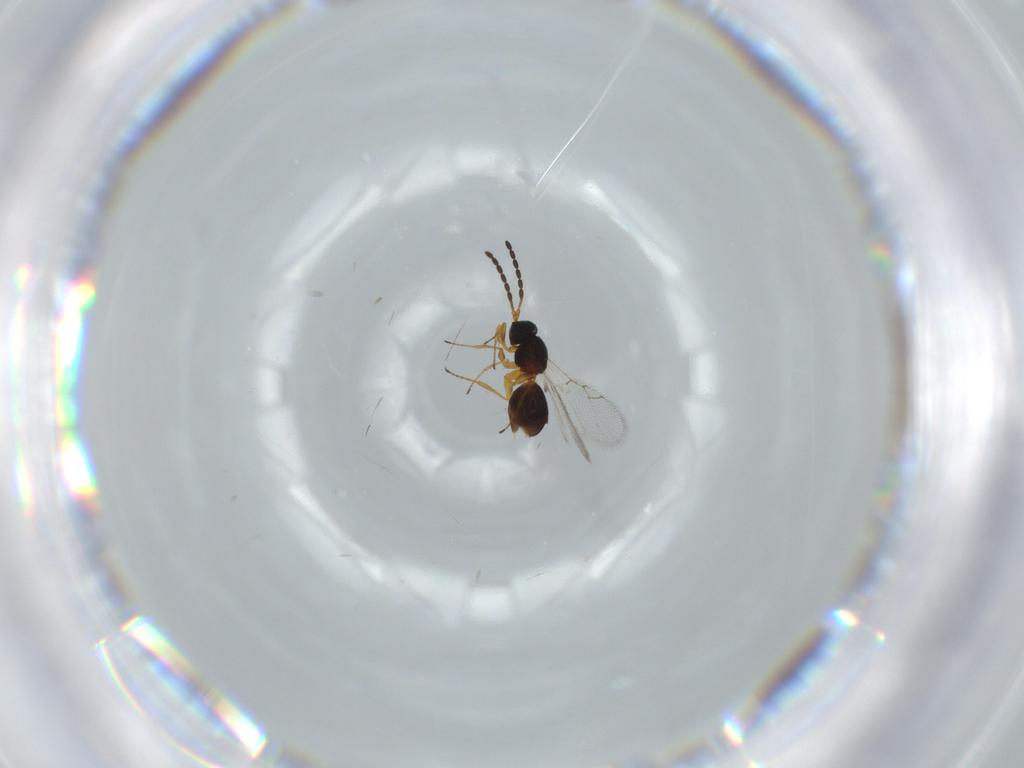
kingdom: Animalia
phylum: Arthropoda
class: Insecta
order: Hymenoptera
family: Figitidae
